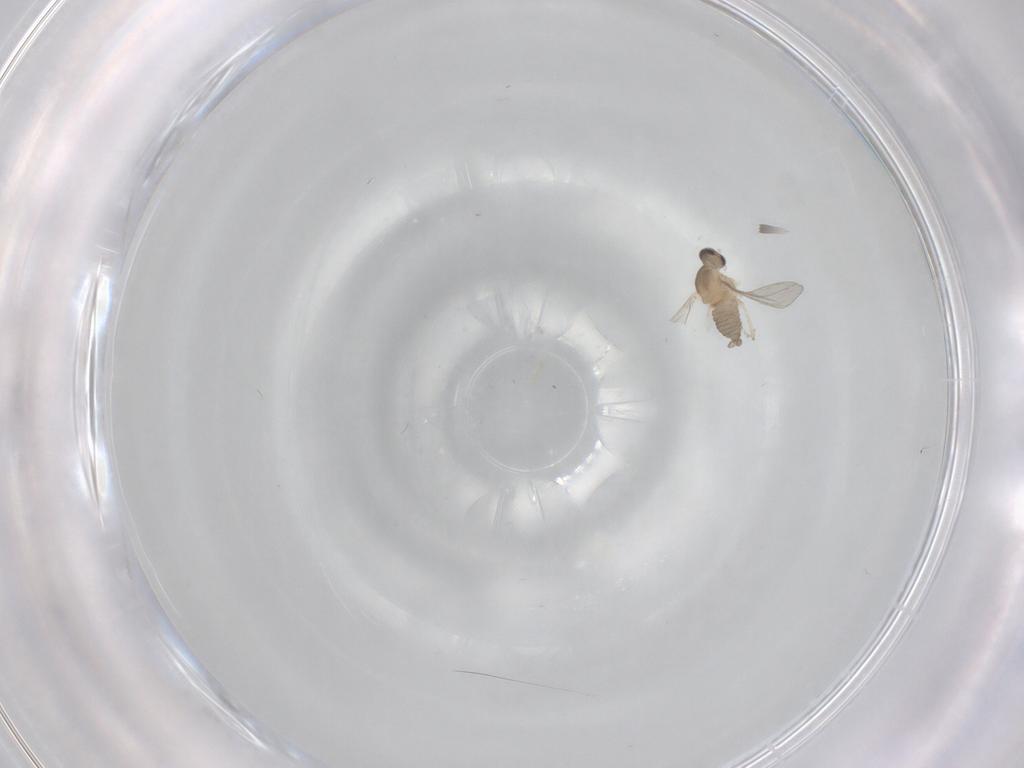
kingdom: Animalia
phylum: Arthropoda
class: Insecta
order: Diptera
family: Cecidomyiidae
